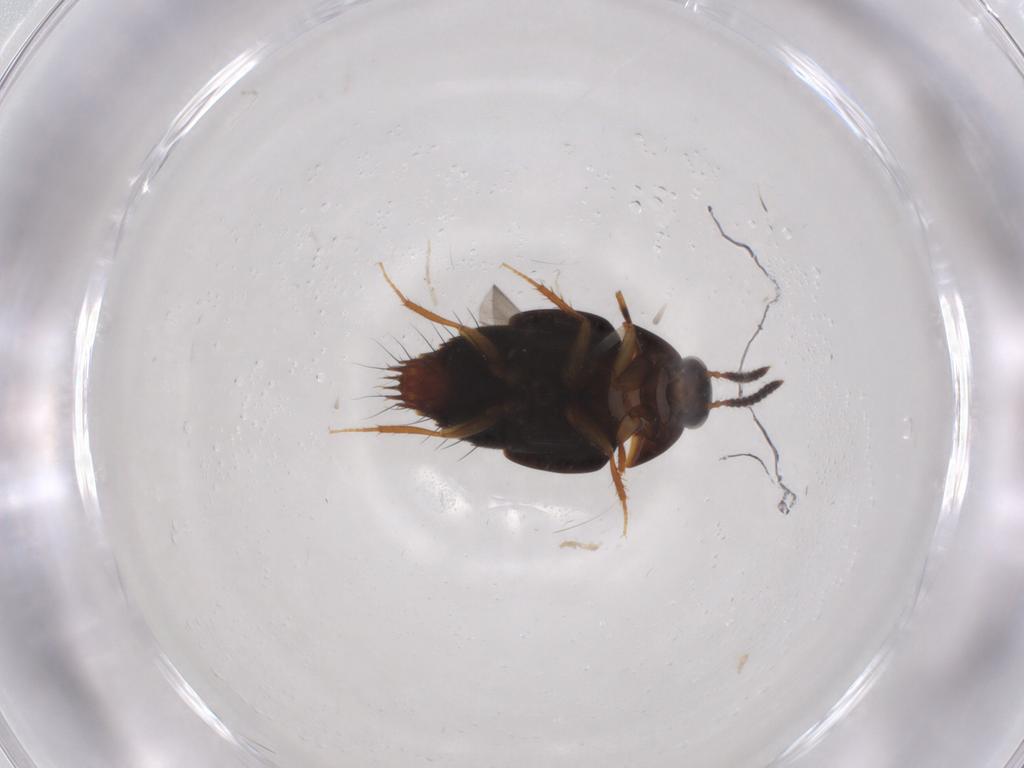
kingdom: Animalia
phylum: Arthropoda
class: Insecta
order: Coleoptera
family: Staphylinidae
